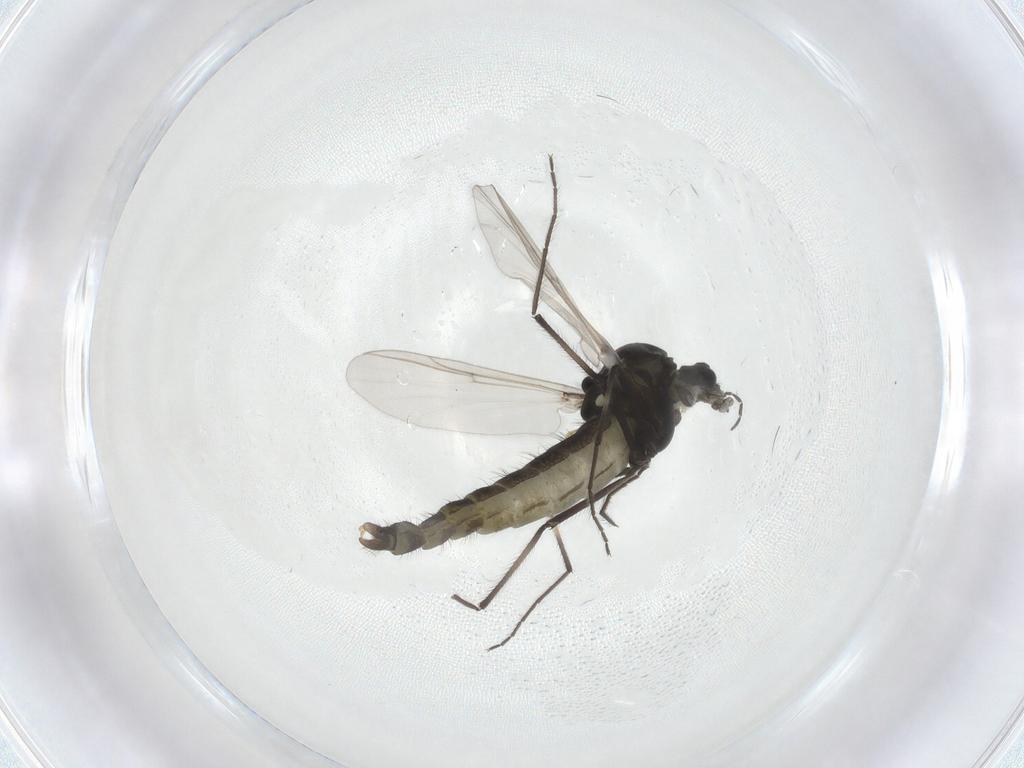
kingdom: Animalia
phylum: Arthropoda
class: Insecta
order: Diptera
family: Chironomidae
